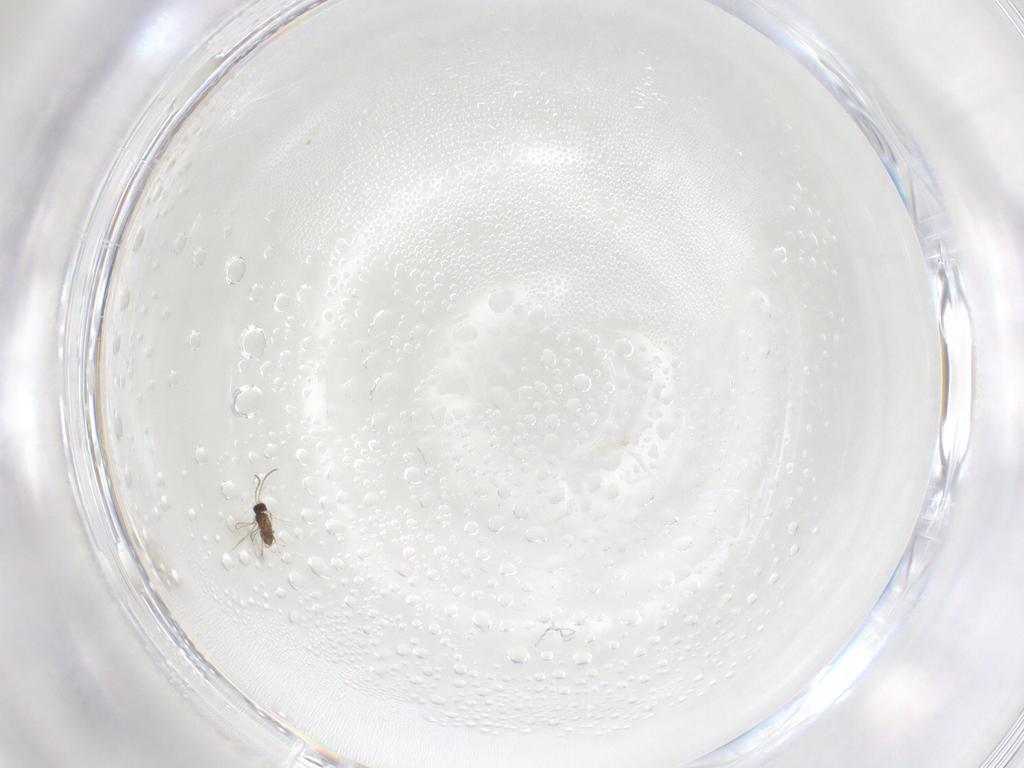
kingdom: Animalia
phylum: Arthropoda
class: Insecta
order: Hymenoptera
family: Mymaridae
